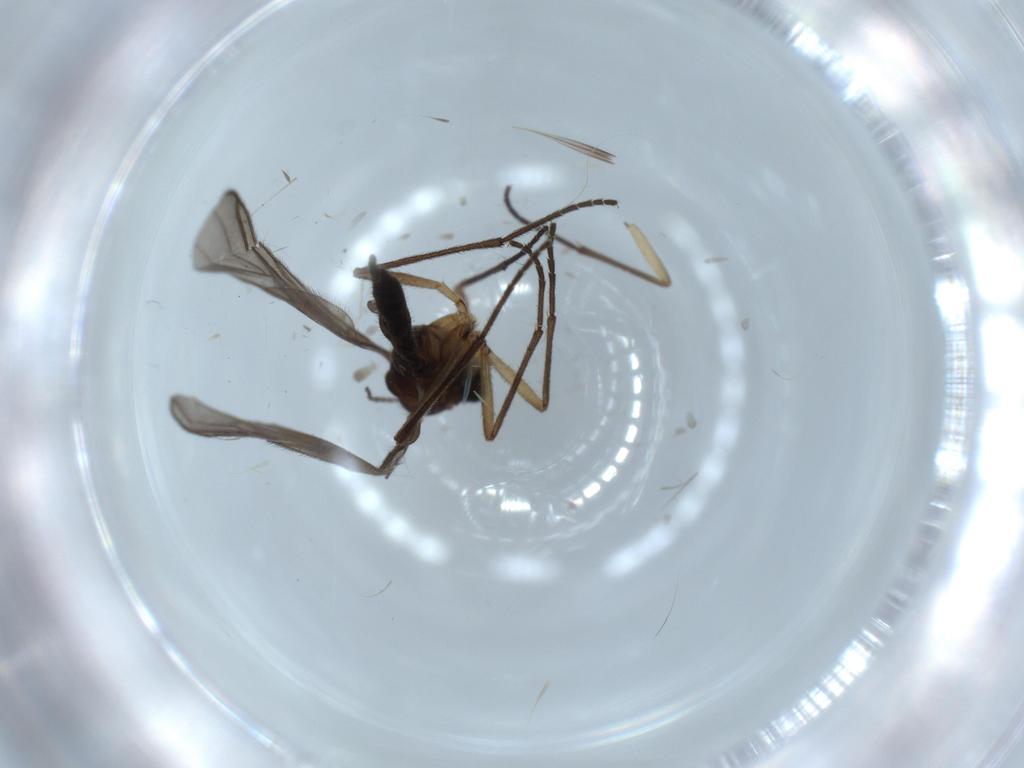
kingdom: Animalia
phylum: Arthropoda
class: Insecta
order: Diptera
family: Sciaridae
